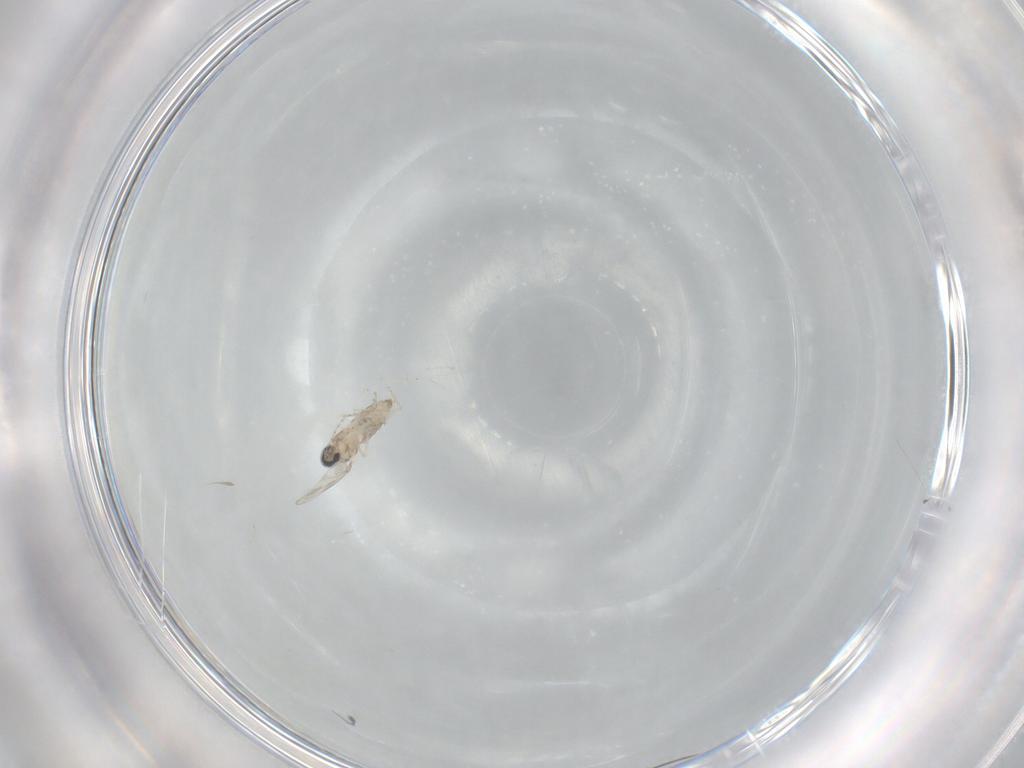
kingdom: Animalia
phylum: Arthropoda
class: Insecta
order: Diptera
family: Cecidomyiidae
